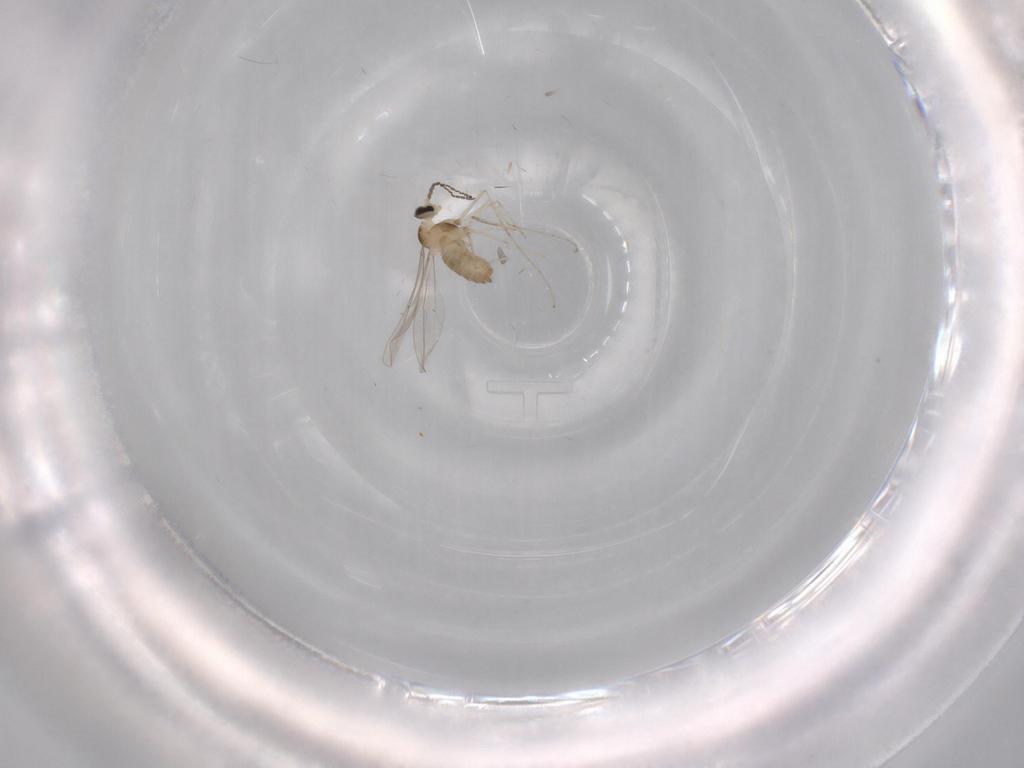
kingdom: Animalia
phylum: Arthropoda
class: Insecta
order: Diptera
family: Cecidomyiidae
